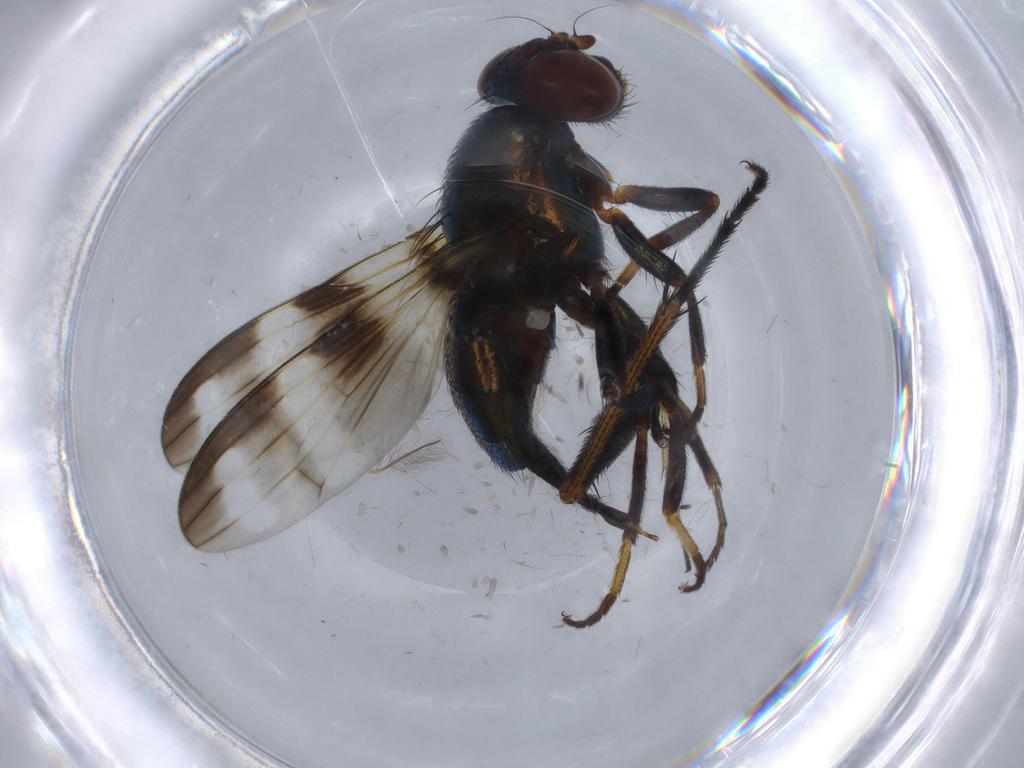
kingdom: Animalia
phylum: Arthropoda
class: Insecta
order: Diptera
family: Dolichopodidae
